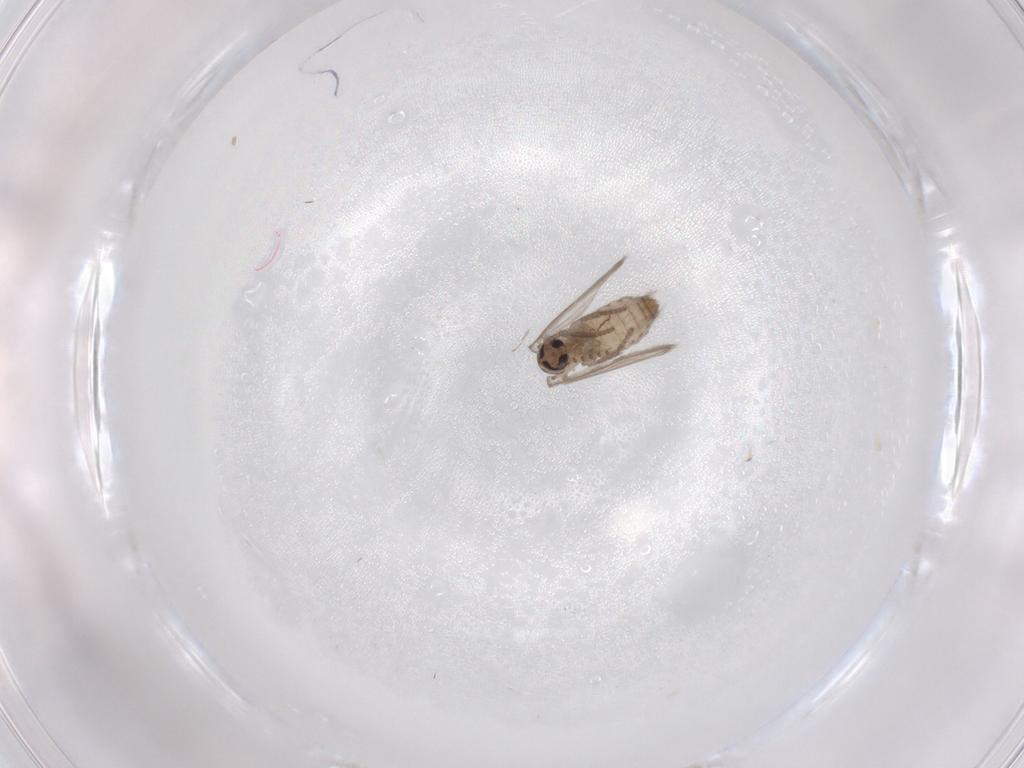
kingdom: Animalia
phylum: Arthropoda
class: Insecta
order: Diptera
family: Psychodidae
